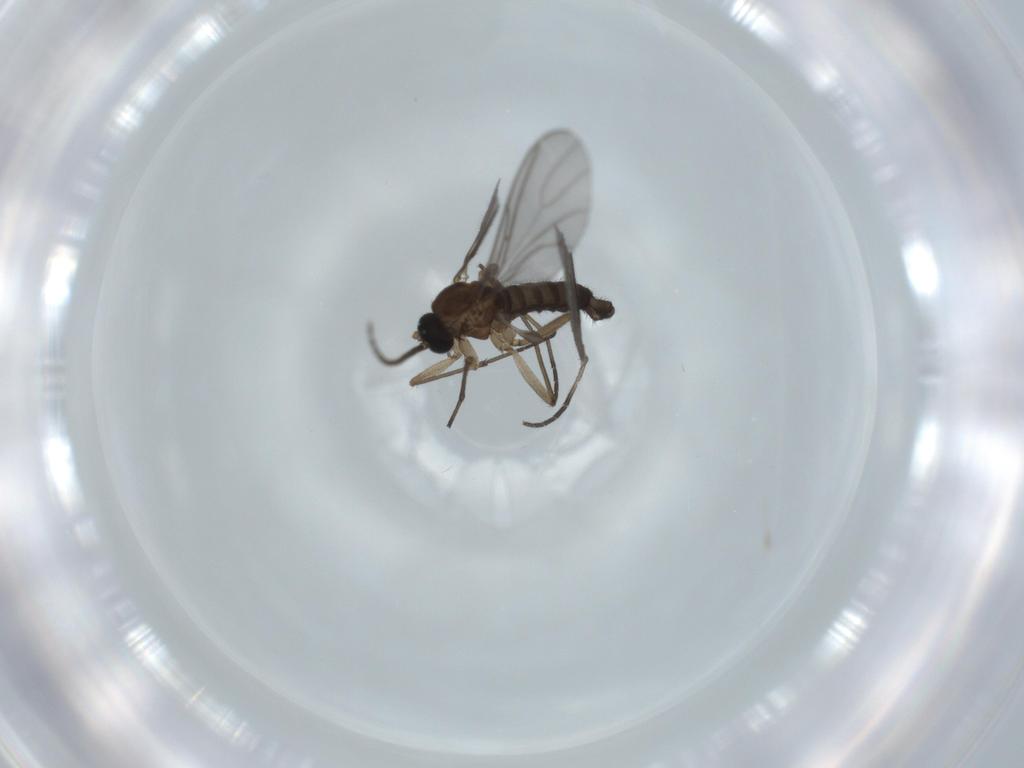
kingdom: Animalia
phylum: Arthropoda
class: Insecta
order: Diptera
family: Sciaridae
